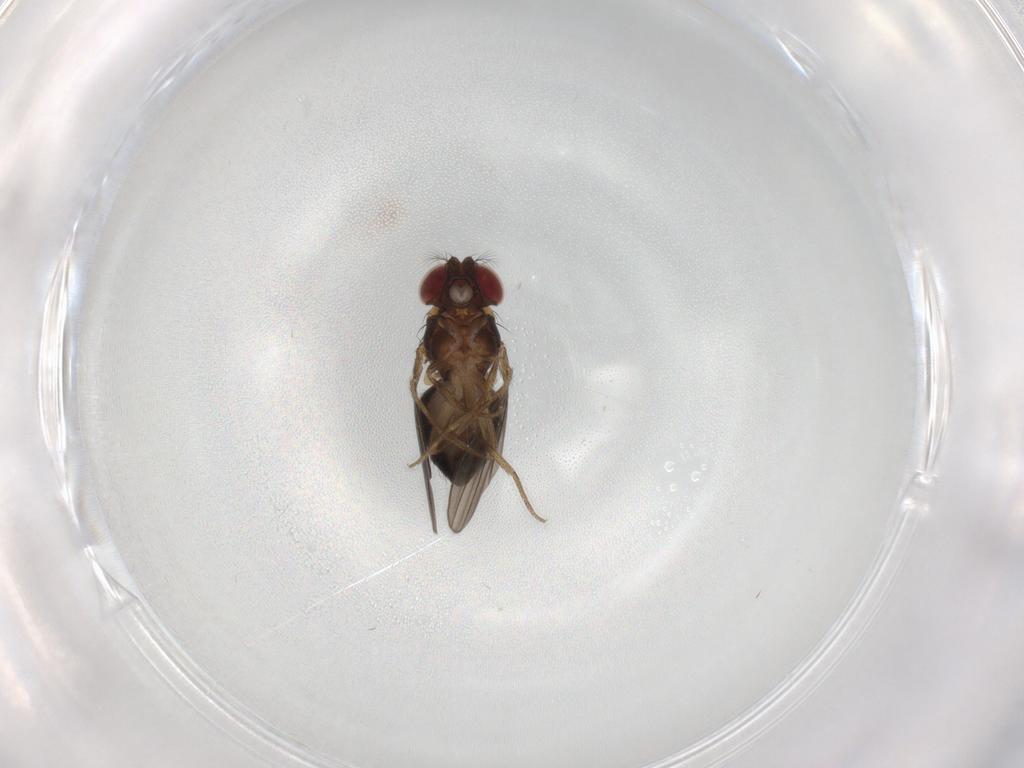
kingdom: Animalia
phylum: Arthropoda
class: Insecta
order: Diptera
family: Drosophilidae
